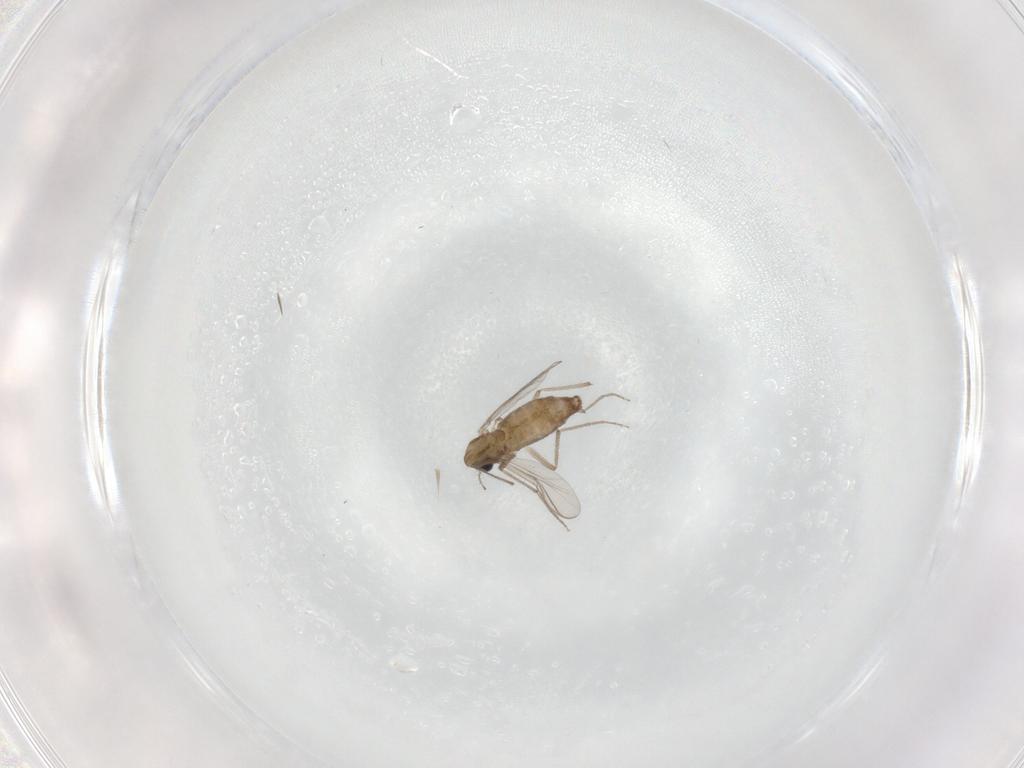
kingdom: Animalia
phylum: Arthropoda
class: Insecta
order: Diptera
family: Chironomidae
